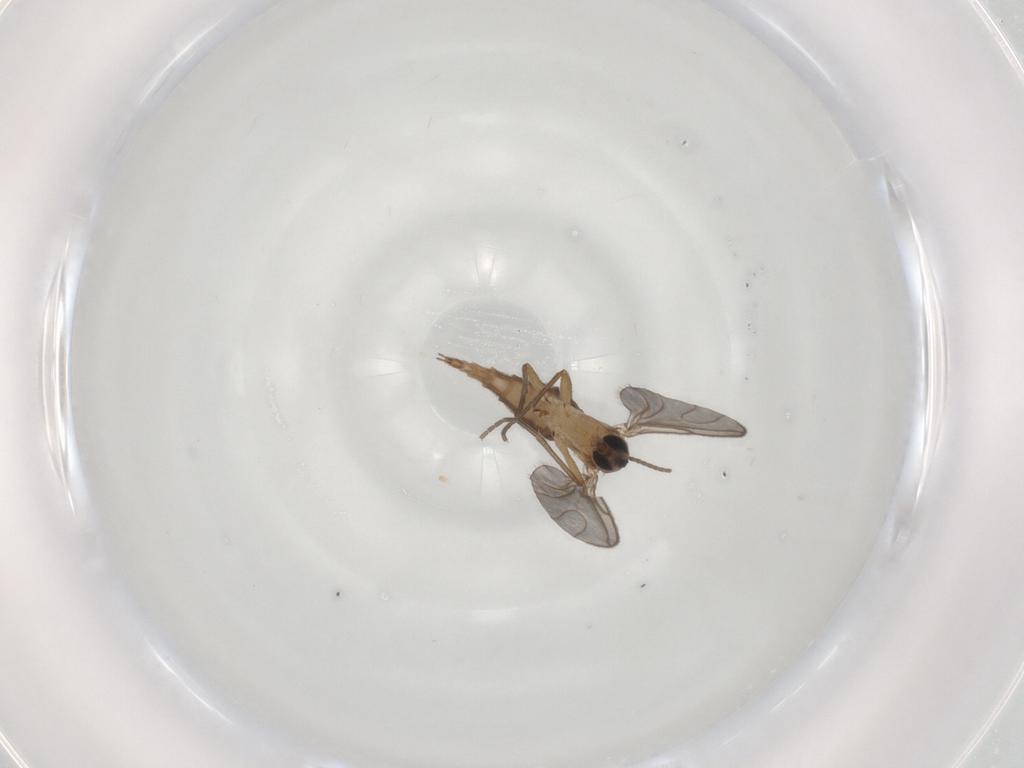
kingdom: Animalia
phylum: Arthropoda
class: Insecta
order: Diptera
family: Sciaridae
